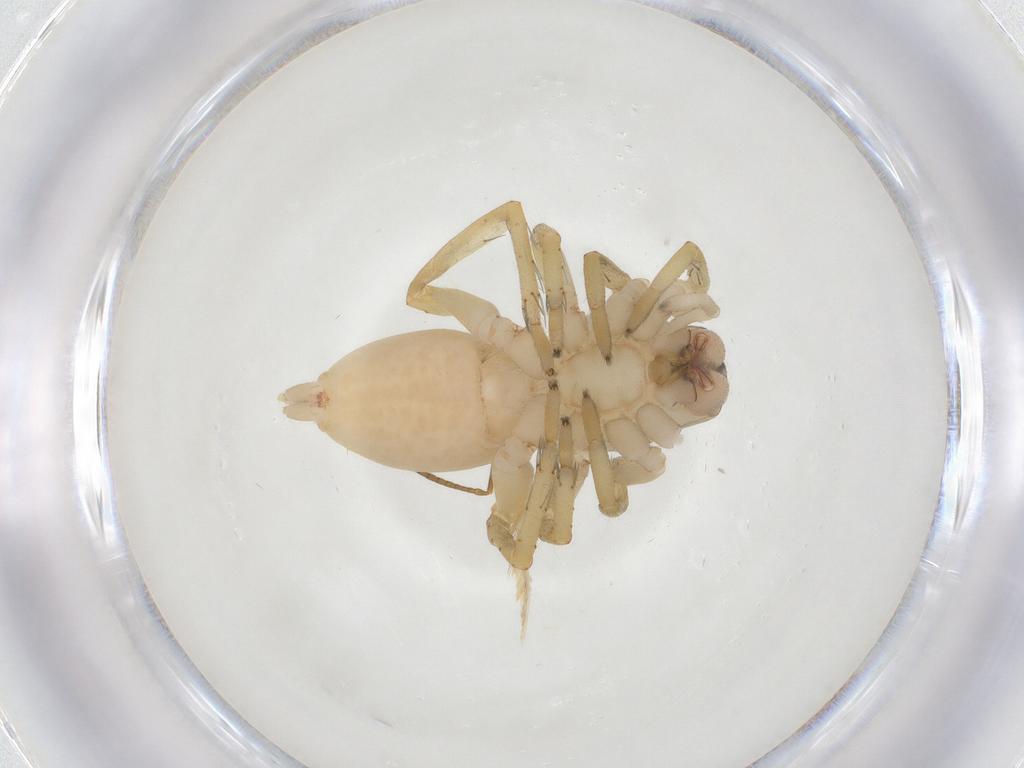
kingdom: Animalia
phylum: Arthropoda
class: Arachnida
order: Araneae
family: Clubionidae
